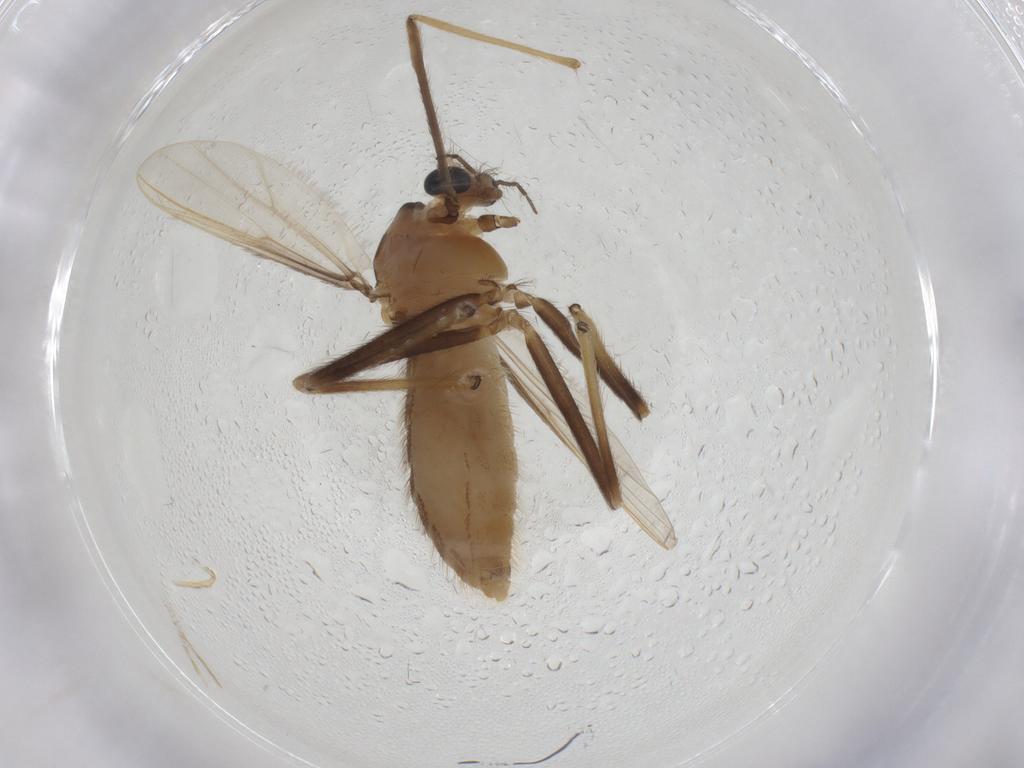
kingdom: Animalia
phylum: Arthropoda
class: Insecta
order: Diptera
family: Chironomidae
